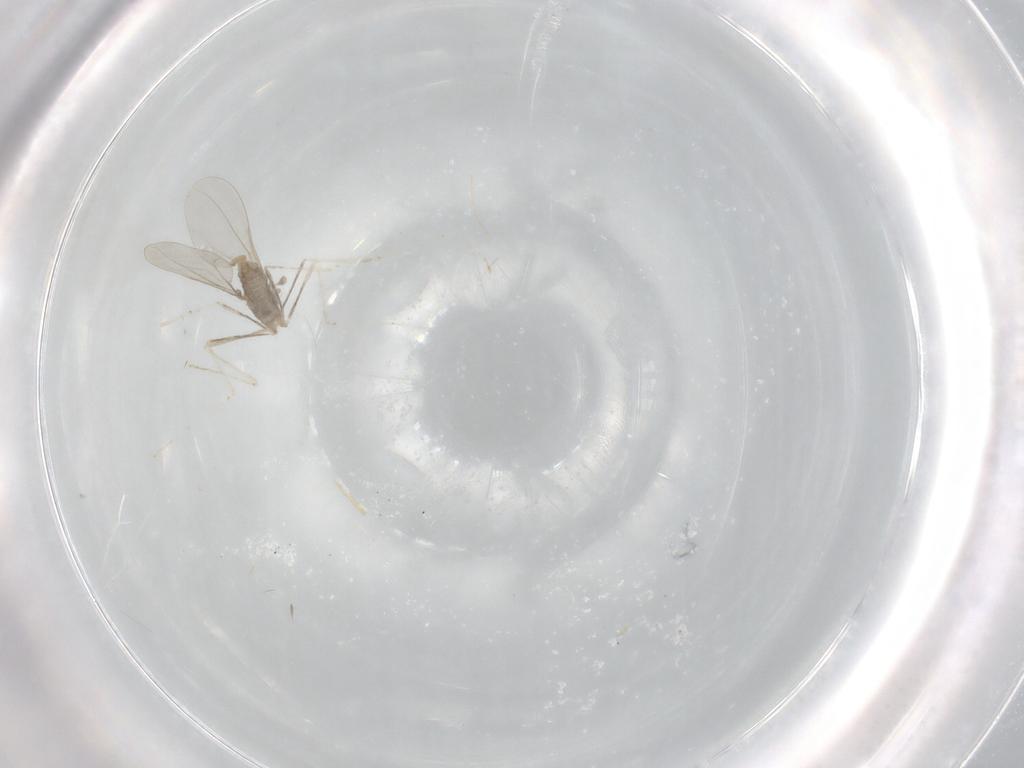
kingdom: Animalia
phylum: Arthropoda
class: Insecta
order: Diptera
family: Cecidomyiidae
